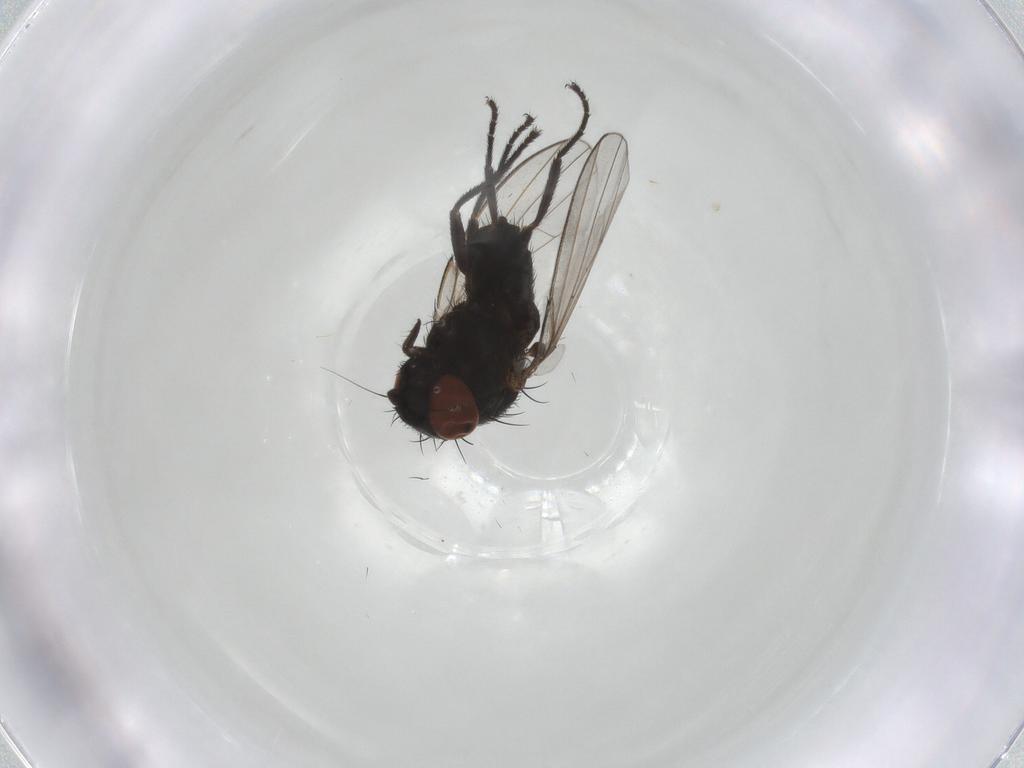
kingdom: Animalia
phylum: Arthropoda
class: Insecta
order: Diptera
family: Milichiidae
